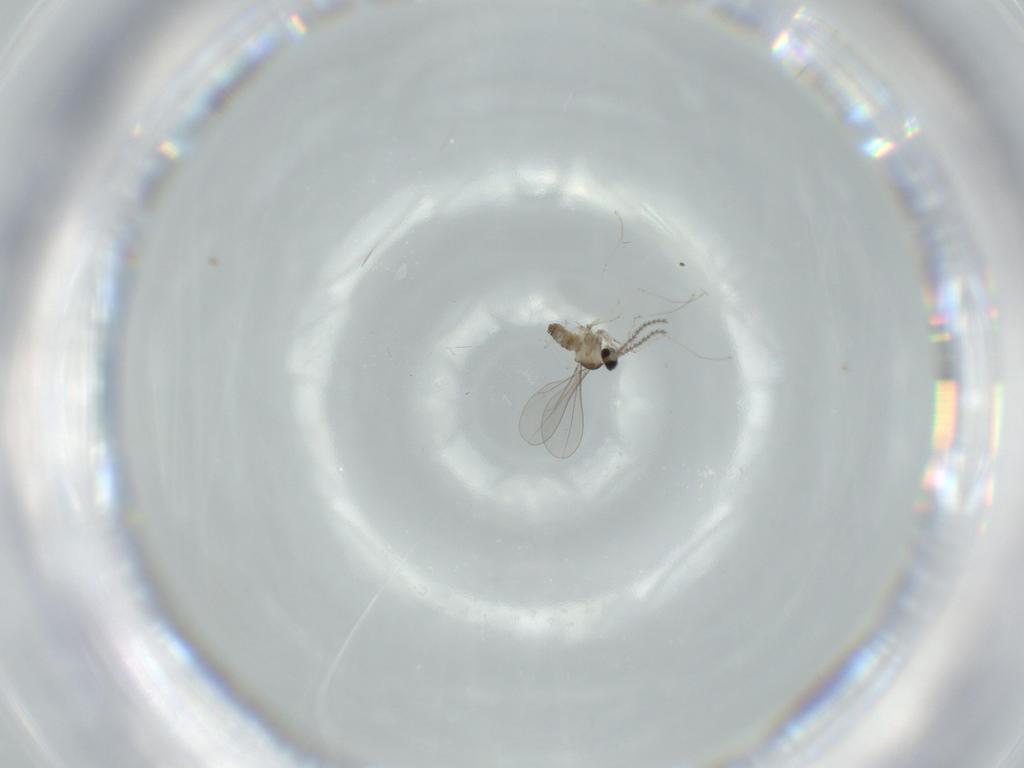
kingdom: Animalia
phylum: Arthropoda
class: Insecta
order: Diptera
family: Cecidomyiidae
